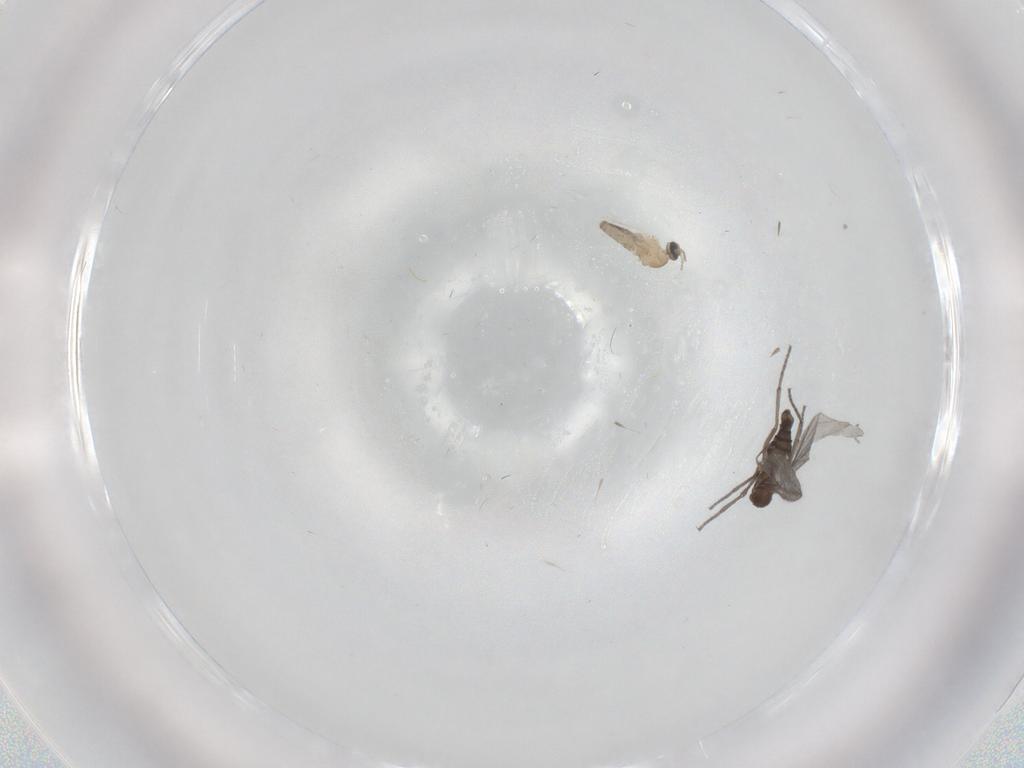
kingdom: Animalia
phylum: Arthropoda
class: Insecta
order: Diptera
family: Sciaridae
